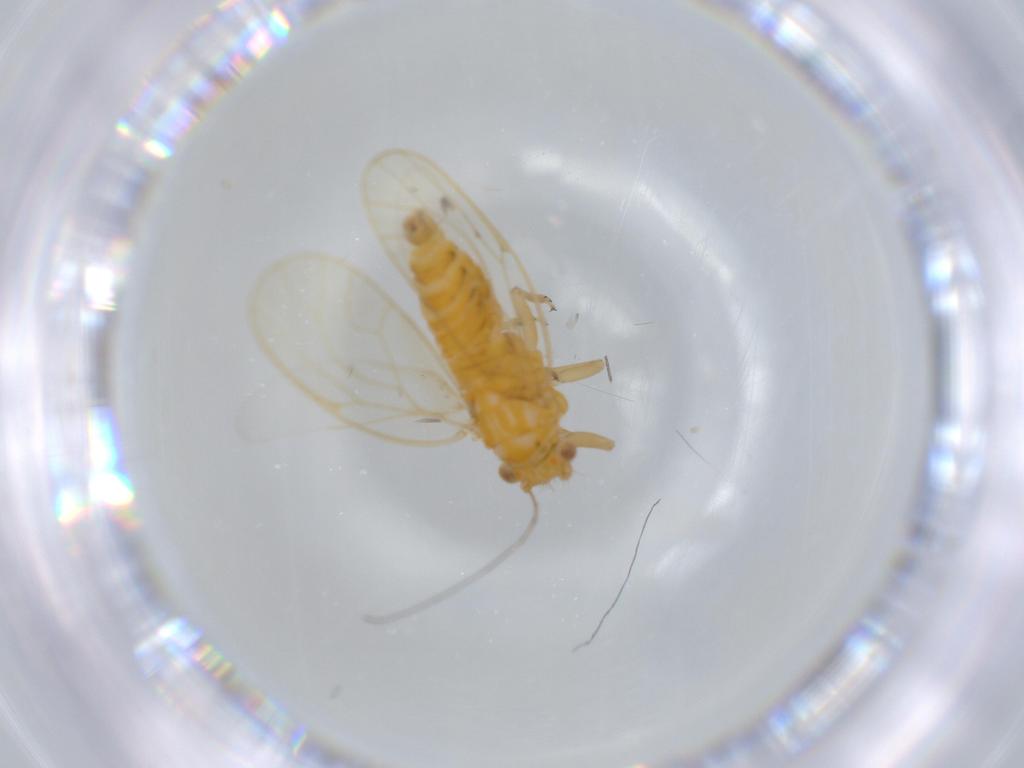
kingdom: Animalia
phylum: Arthropoda
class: Insecta
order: Hemiptera
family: Psyllidae
